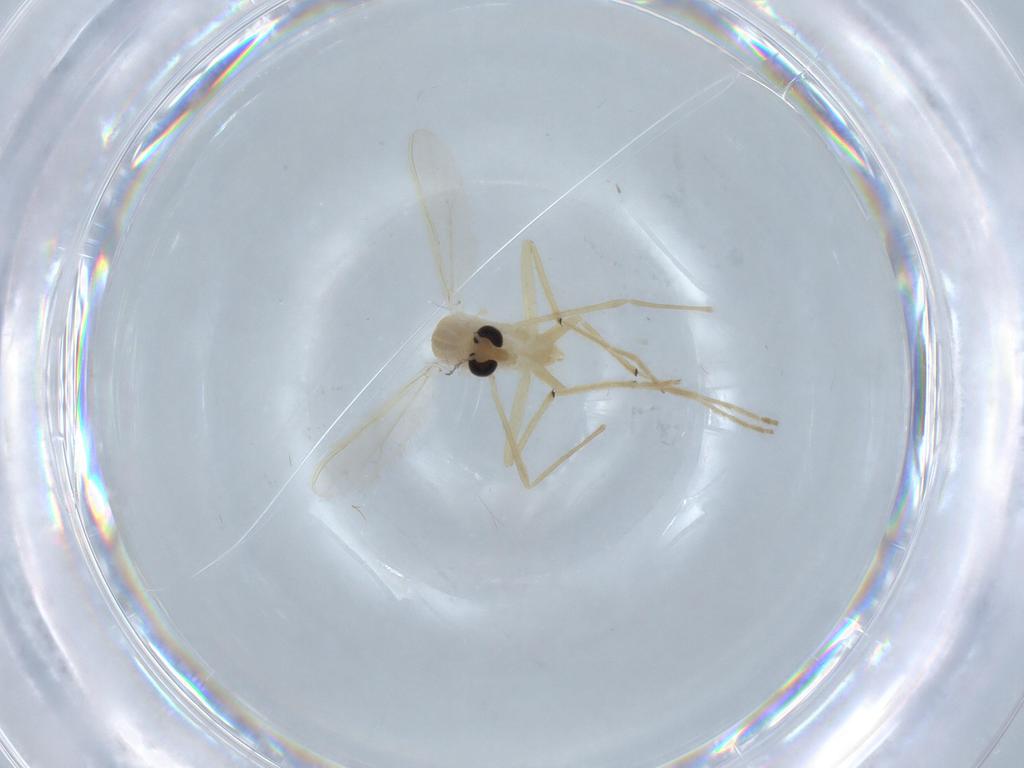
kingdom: Animalia
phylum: Arthropoda
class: Insecta
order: Diptera
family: Chironomidae
